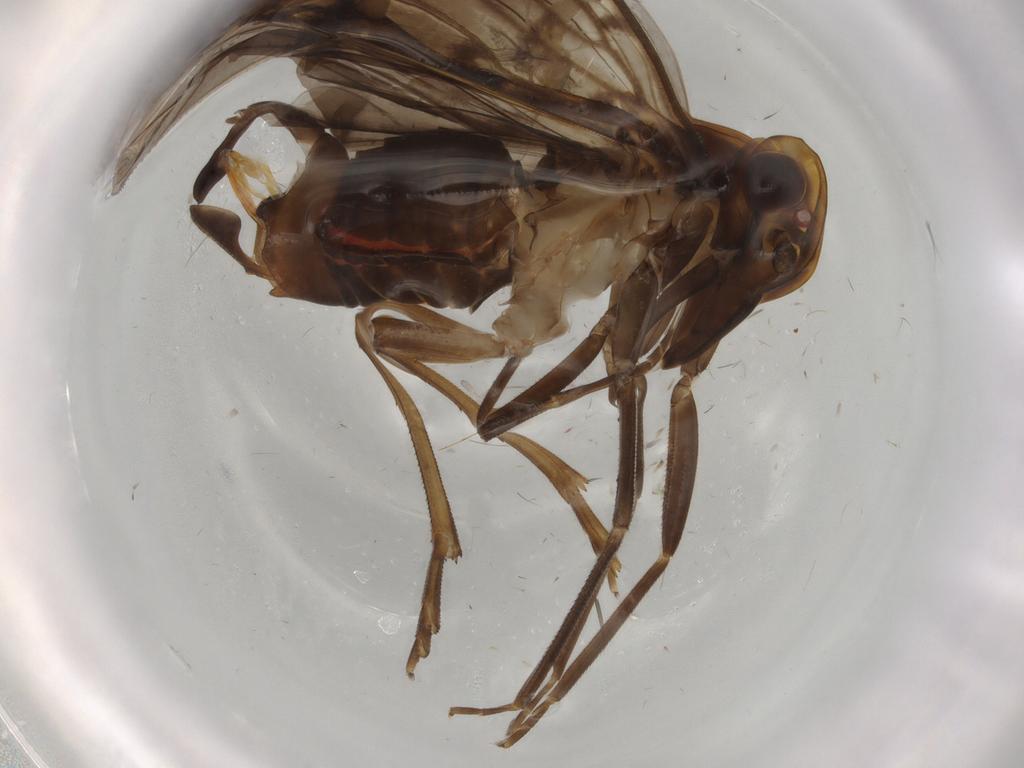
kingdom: Animalia
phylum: Arthropoda
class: Insecta
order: Hemiptera
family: Cixiidae
